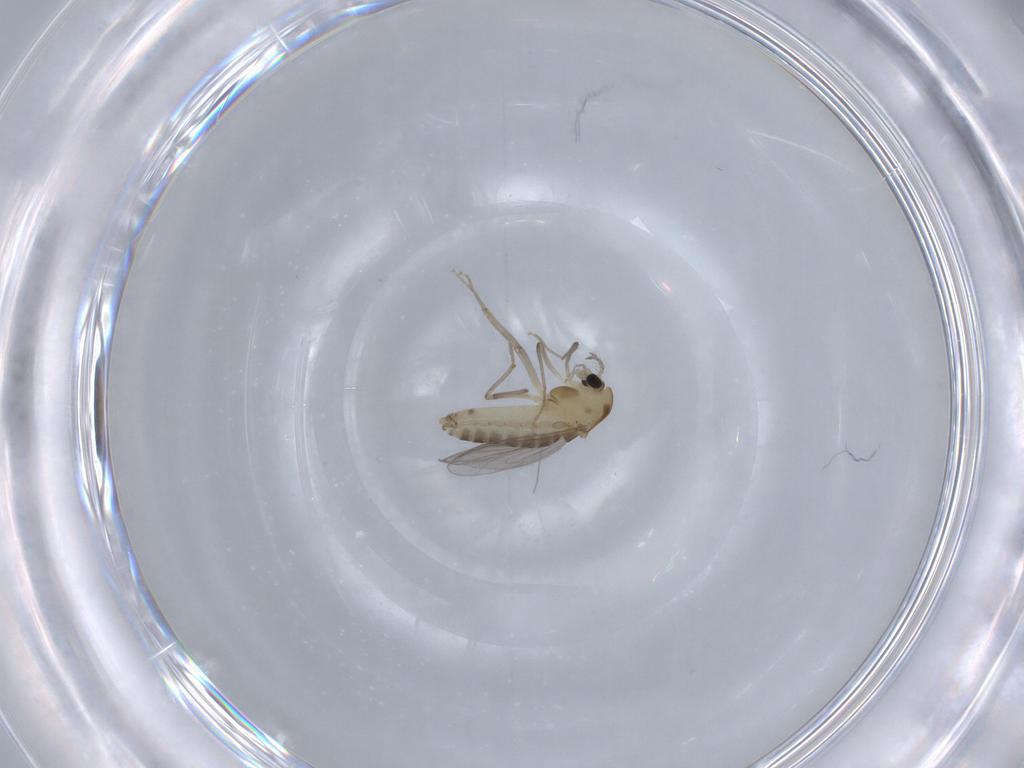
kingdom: Animalia
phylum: Arthropoda
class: Insecta
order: Diptera
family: Chironomidae
